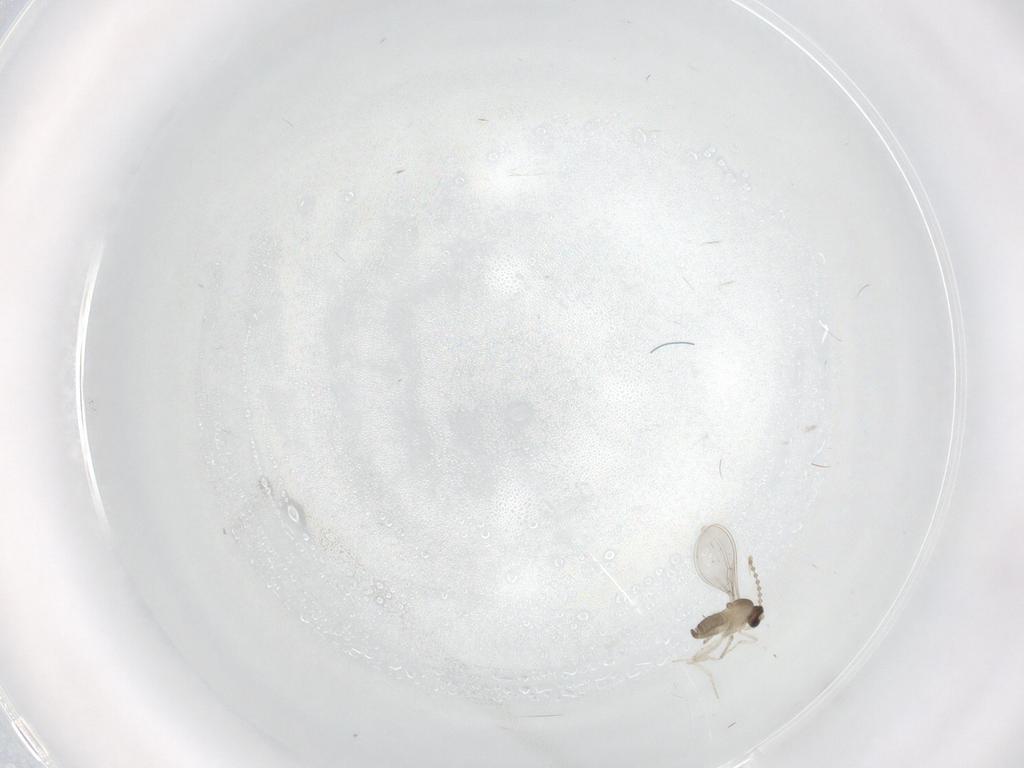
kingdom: Animalia
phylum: Arthropoda
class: Insecta
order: Diptera
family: Cecidomyiidae
